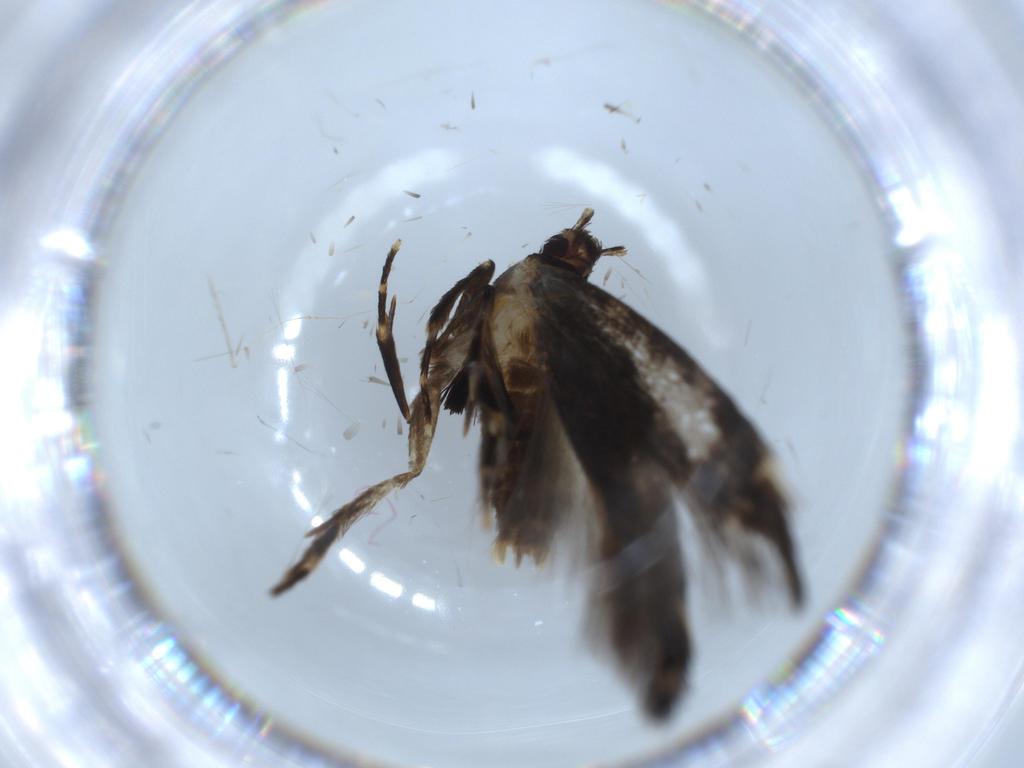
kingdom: Animalia
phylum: Arthropoda
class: Insecta
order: Lepidoptera
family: Cosmopterigidae
